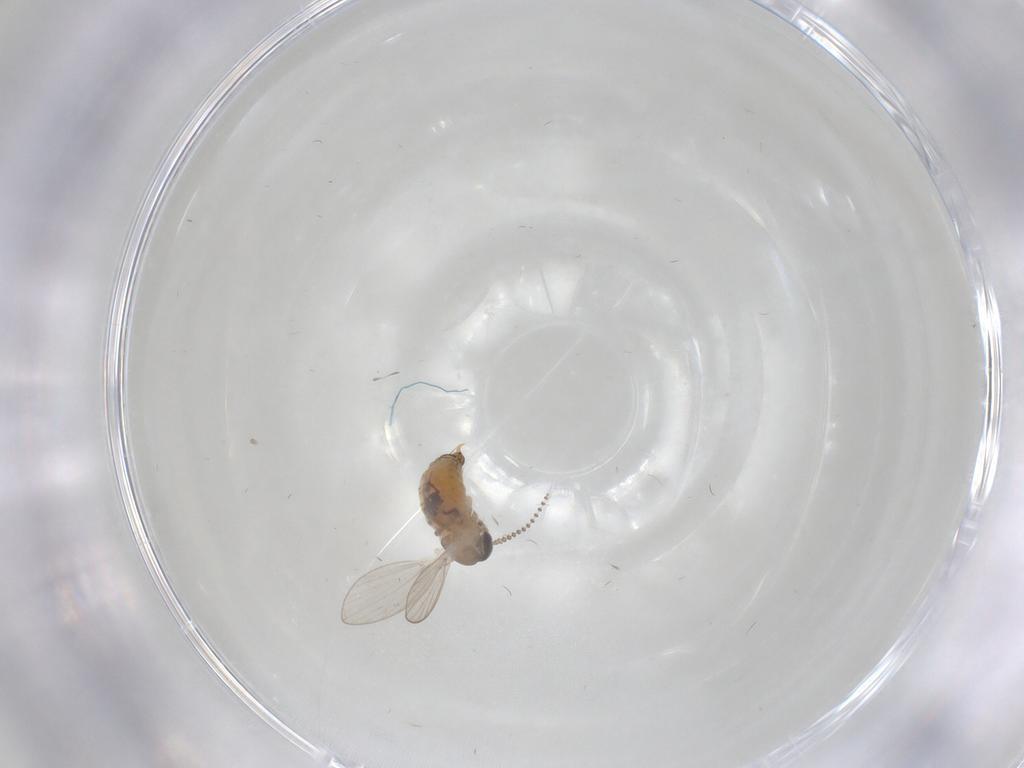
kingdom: Animalia
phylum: Arthropoda
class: Insecta
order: Diptera
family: Psychodidae
